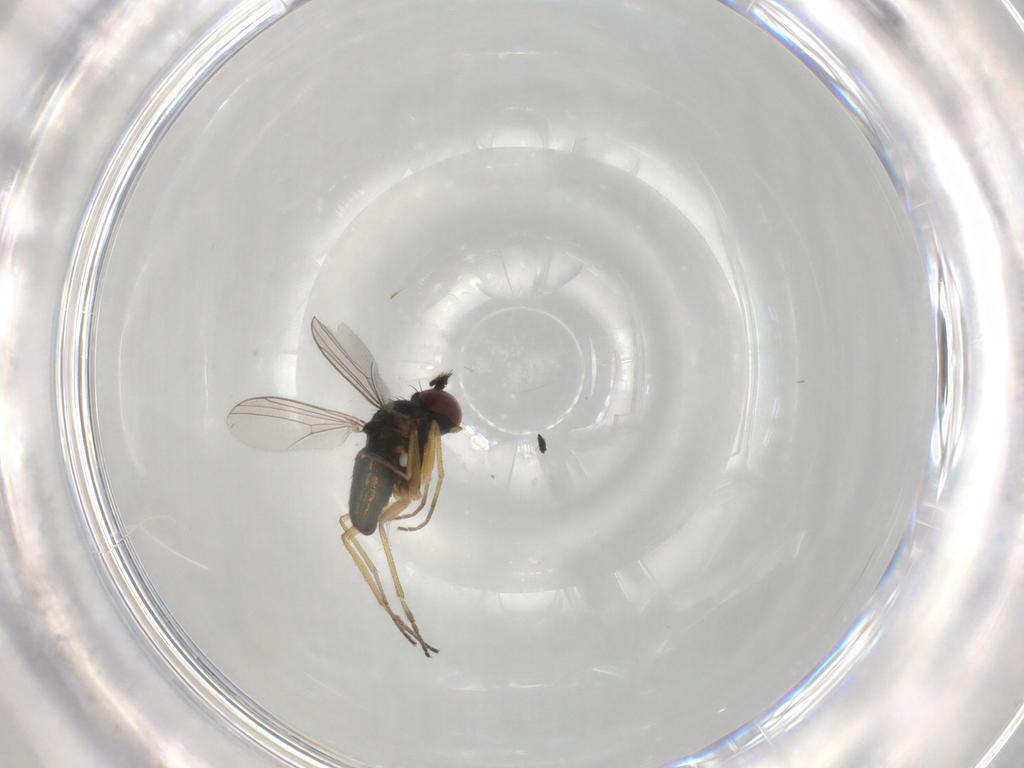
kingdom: Animalia
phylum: Arthropoda
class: Insecta
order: Diptera
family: Dolichopodidae
